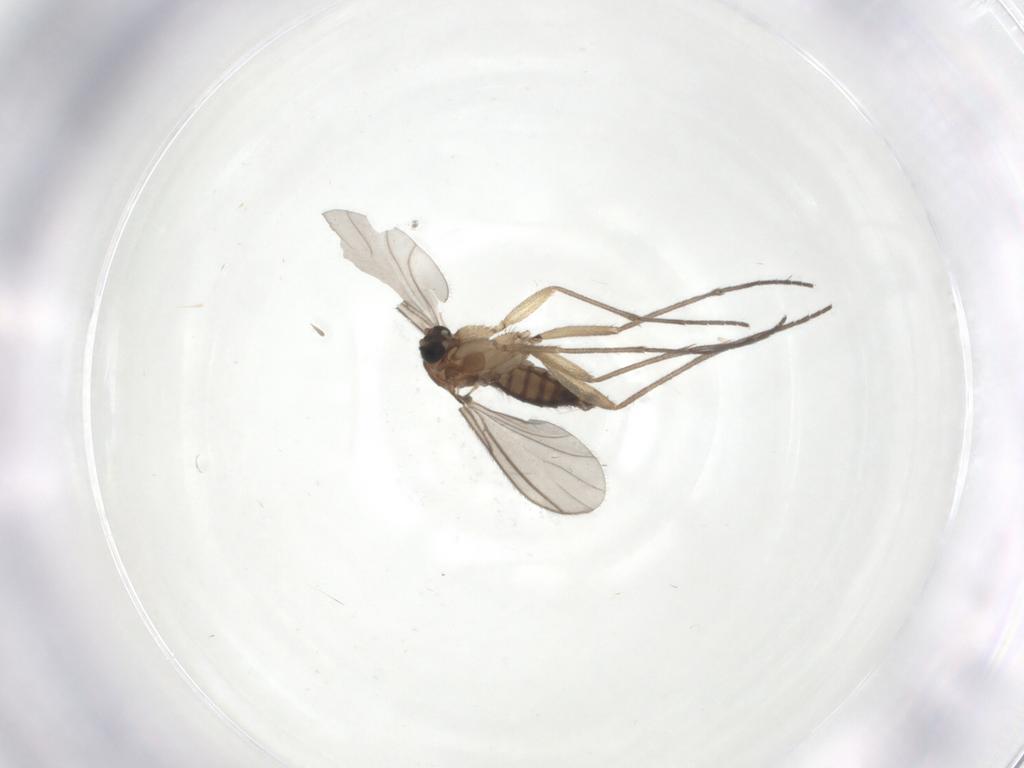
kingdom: Animalia
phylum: Arthropoda
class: Insecta
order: Diptera
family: Sciaridae
